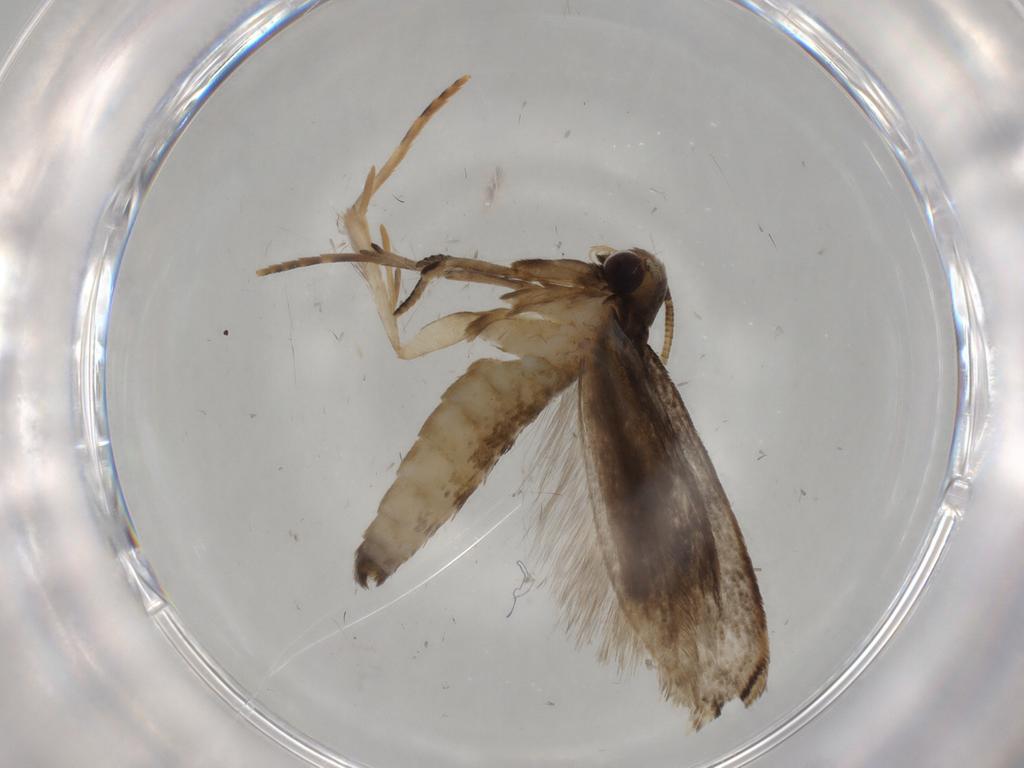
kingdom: Animalia
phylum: Arthropoda
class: Insecta
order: Lepidoptera
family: Tineidae
